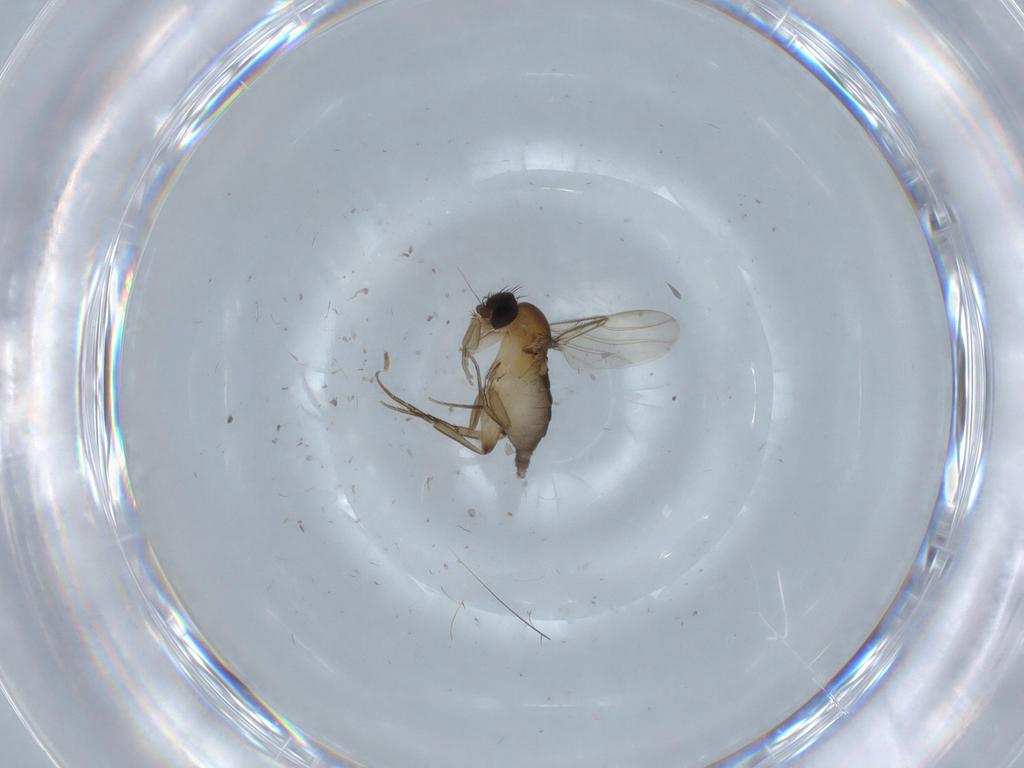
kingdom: Animalia
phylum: Arthropoda
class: Insecta
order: Diptera
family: Phoridae
